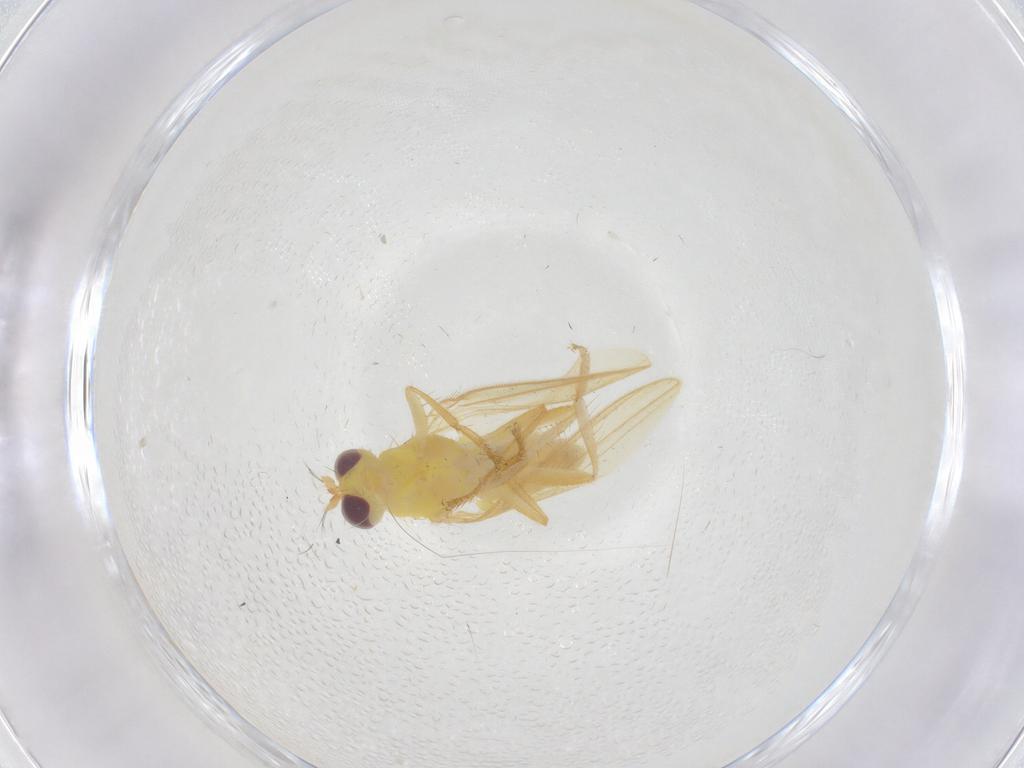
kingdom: Animalia
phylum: Arthropoda
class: Insecta
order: Diptera
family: Periscelididae
